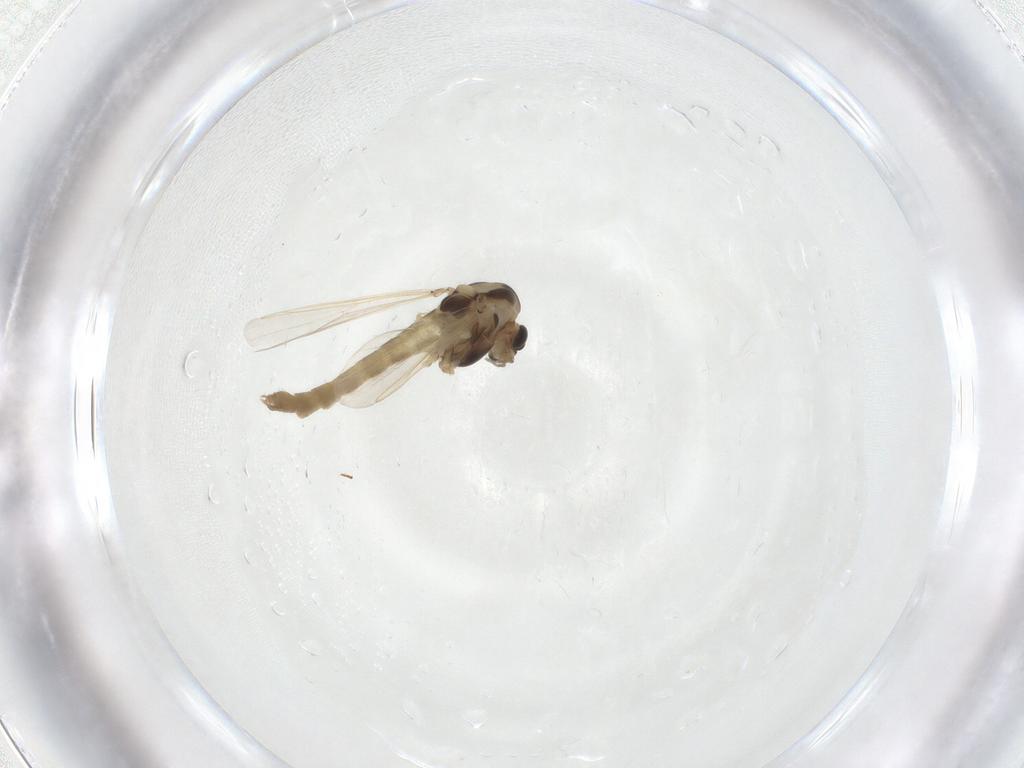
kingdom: Animalia
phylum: Arthropoda
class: Insecta
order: Diptera
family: Chironomidae
